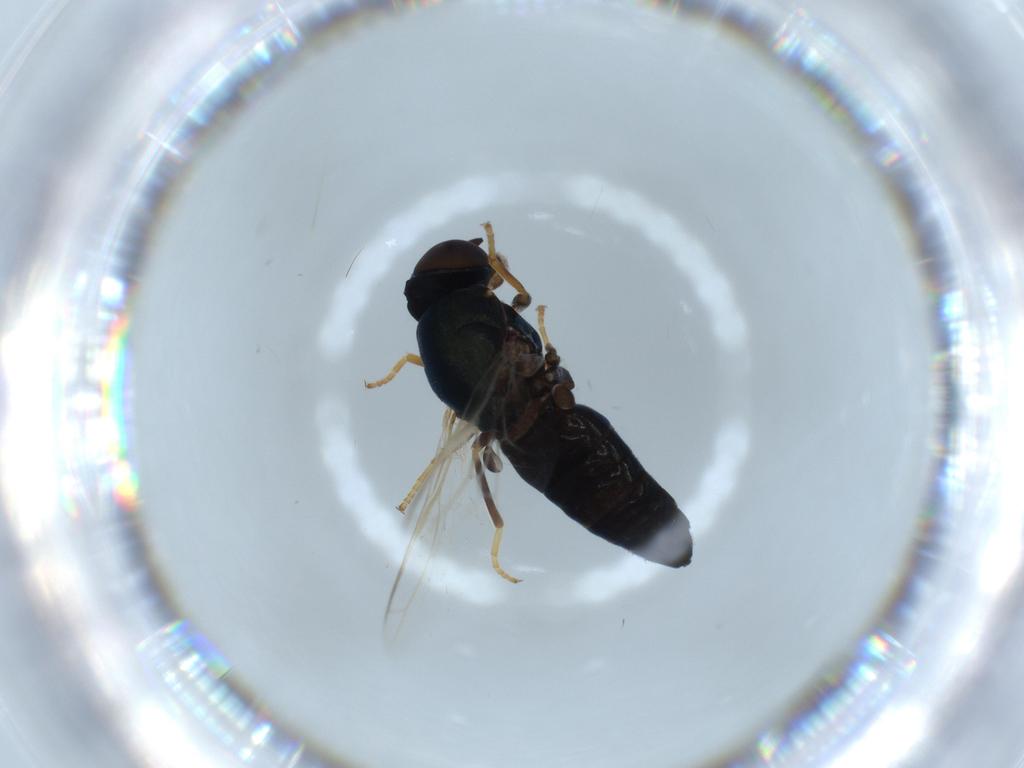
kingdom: Animalia
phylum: Arthropoda
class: Insecta
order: Diptera
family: Scenopinidae
